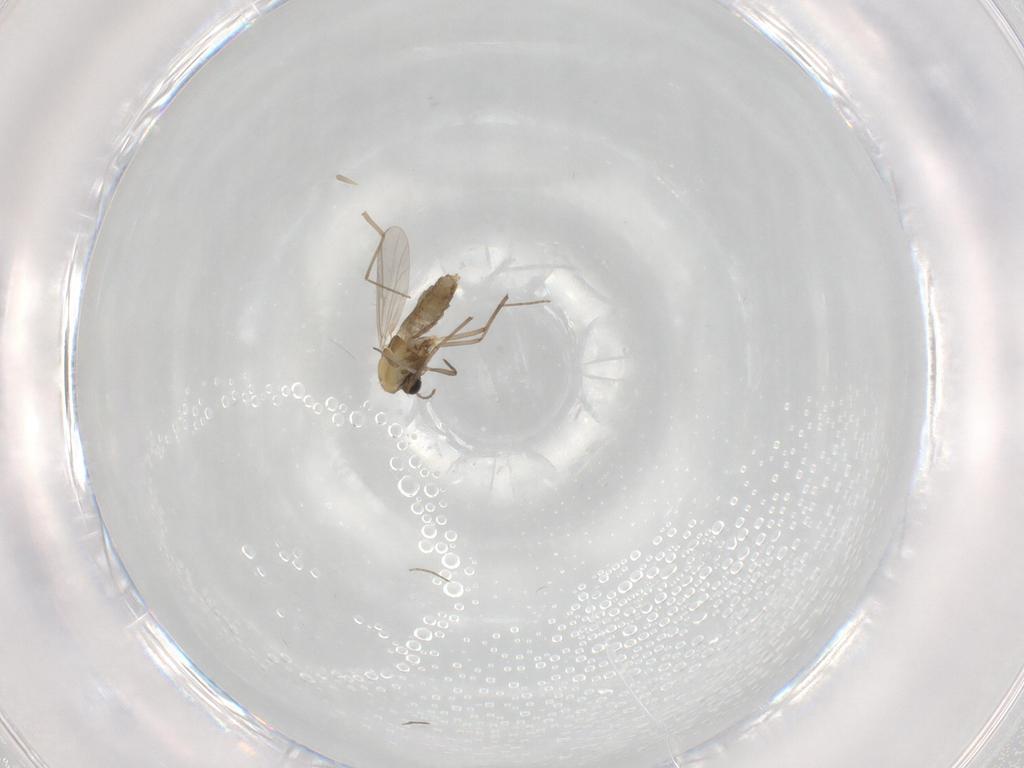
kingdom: Animalia
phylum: Arthropoda
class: Insecta
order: Diptera
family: Chironomidae
